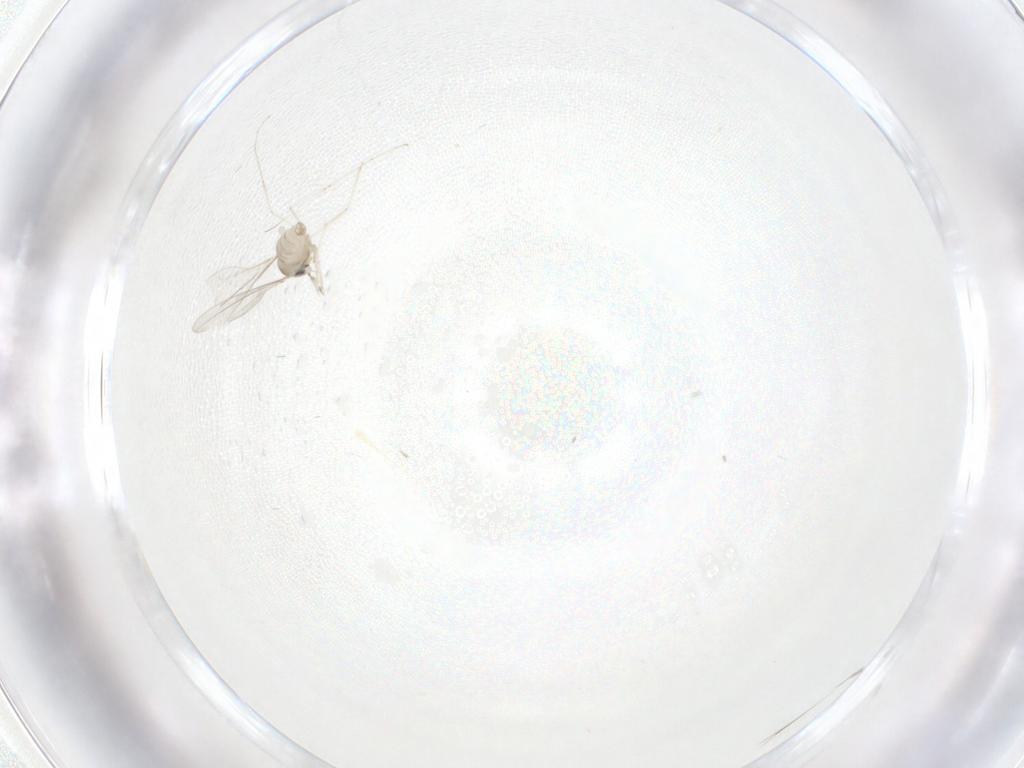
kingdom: Animalia
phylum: Arthropoda
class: Insecta
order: Diptera
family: Cecidomyiidae
